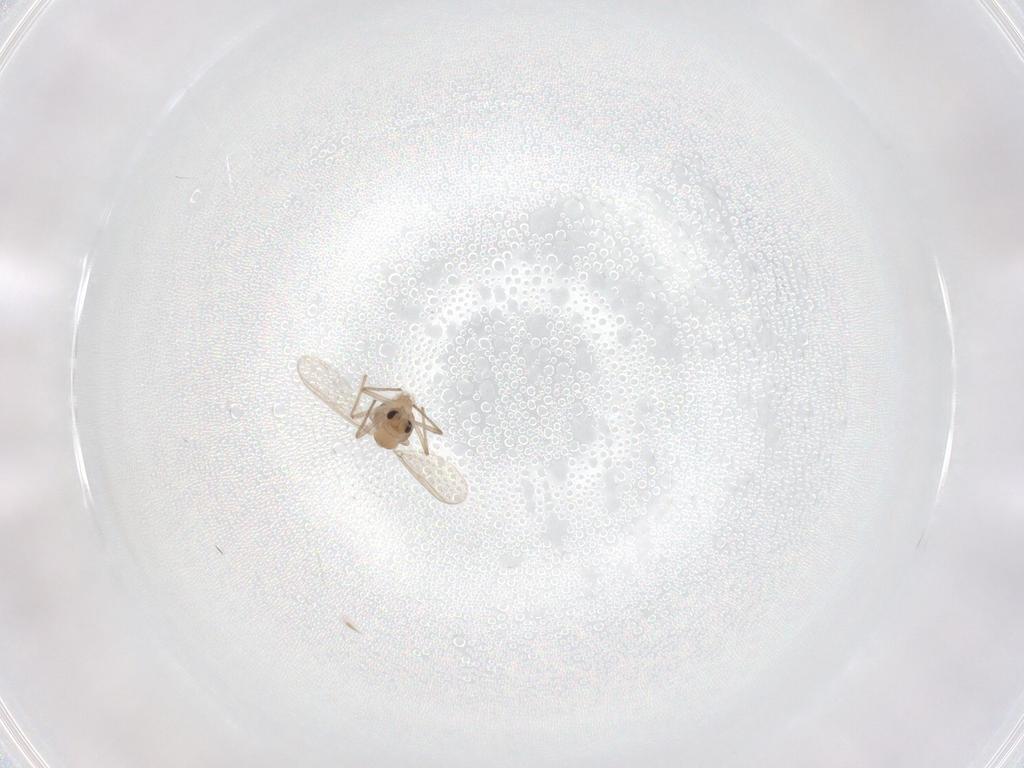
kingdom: Animalia
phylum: Arthropoda
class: Insecta
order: Diptera
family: Chironomidae
